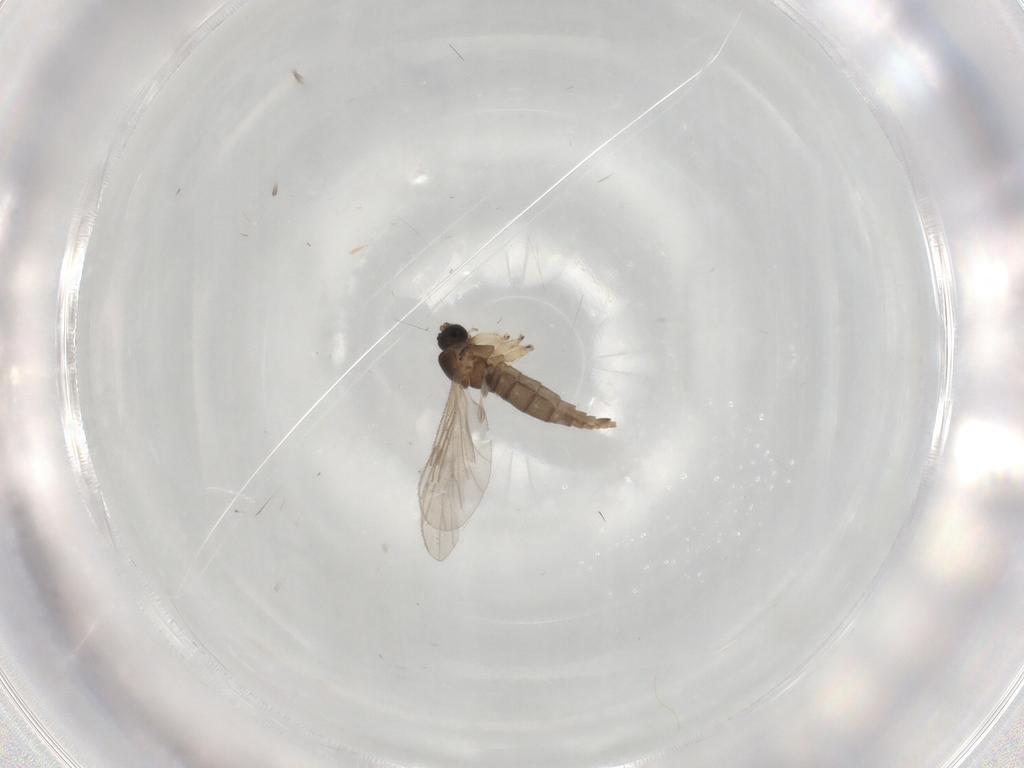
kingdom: Animalia
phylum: Arthropoda
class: Insecta
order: Diptera
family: Sciaridae
